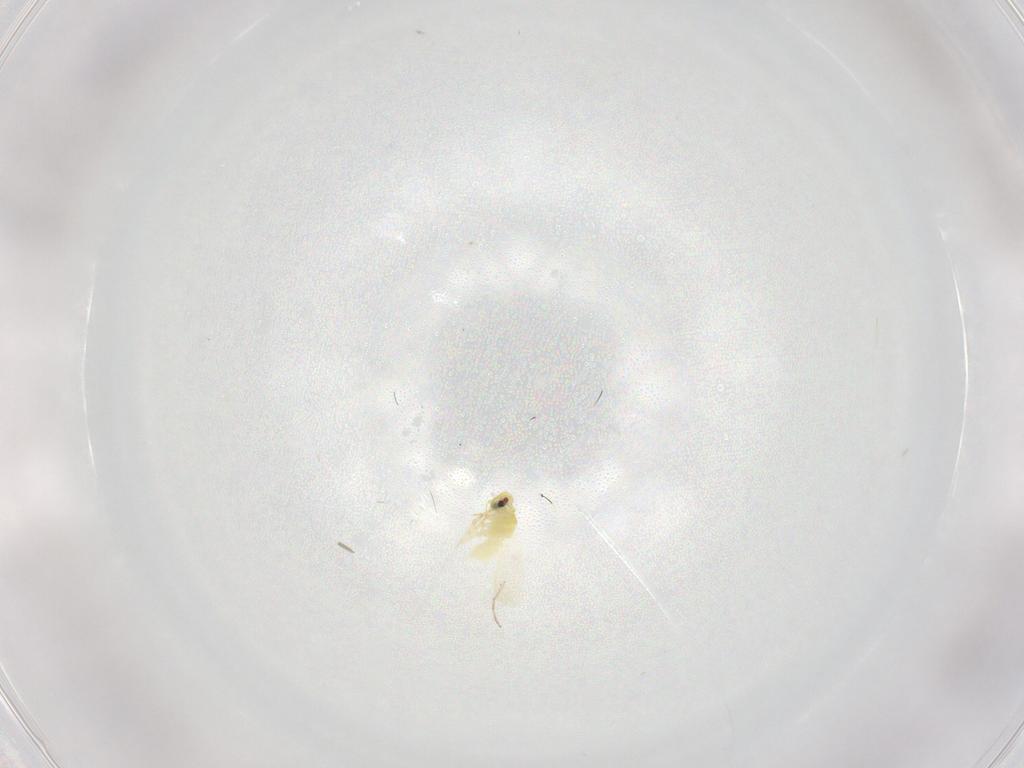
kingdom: Animalia
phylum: Arthropoda
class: Insecta
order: Hemiptera
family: Aleyrodidae
